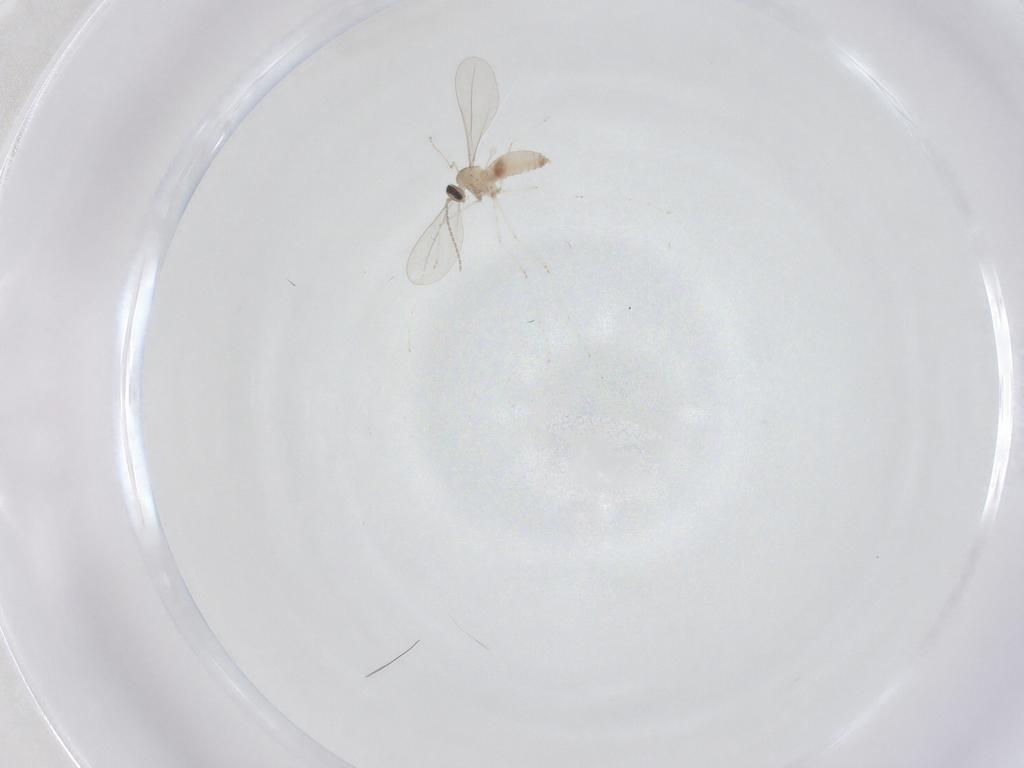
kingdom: Animalia
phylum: Arthropoda
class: Insecta
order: Diptera
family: Cecidomyiidae
